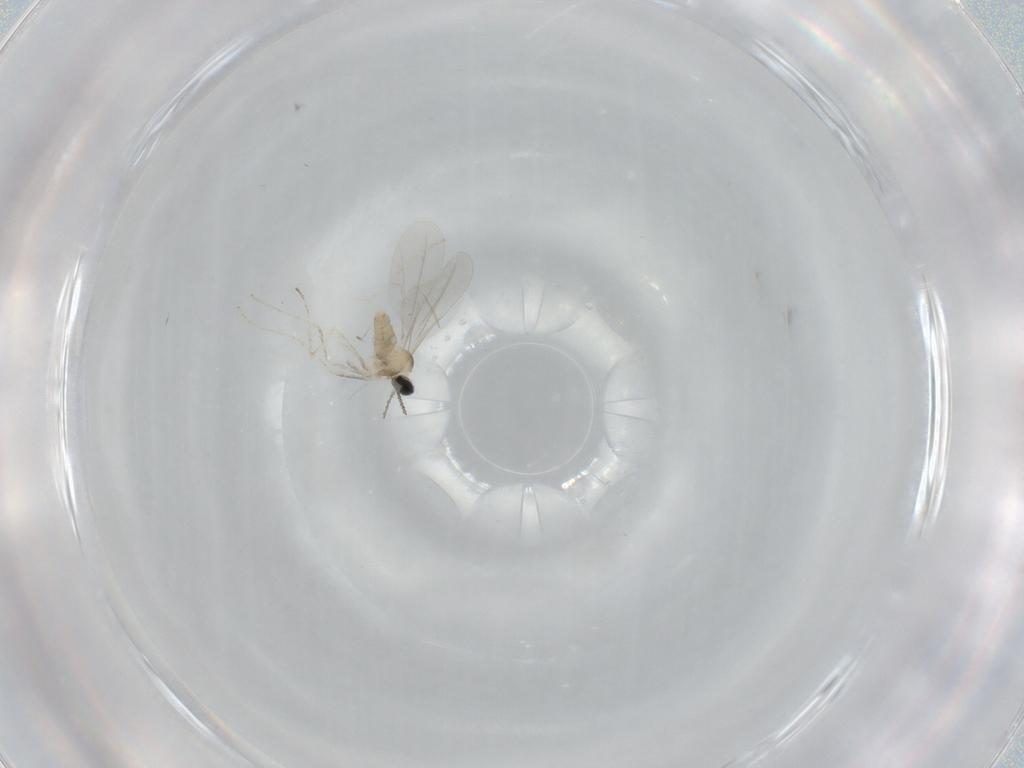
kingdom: Animalia
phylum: Arthropoda
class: Insecta
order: Diptera
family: Cecidomyiidae
